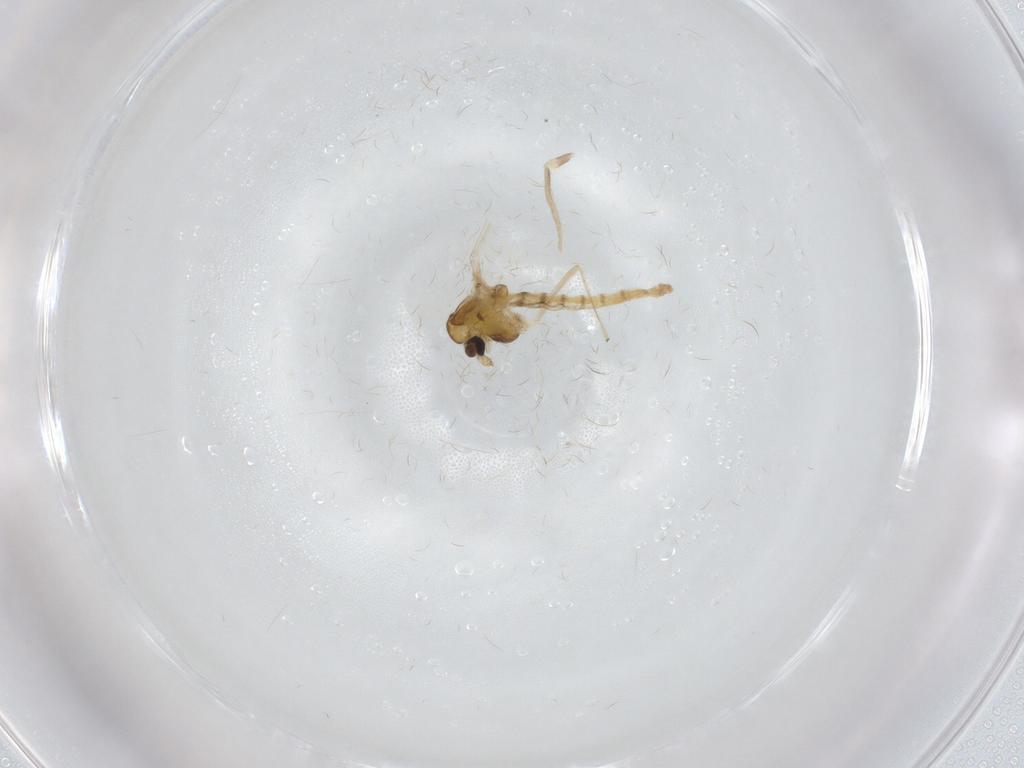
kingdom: Animalia
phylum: Arthropoda
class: Insecta
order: Diptera
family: Chironomidae
